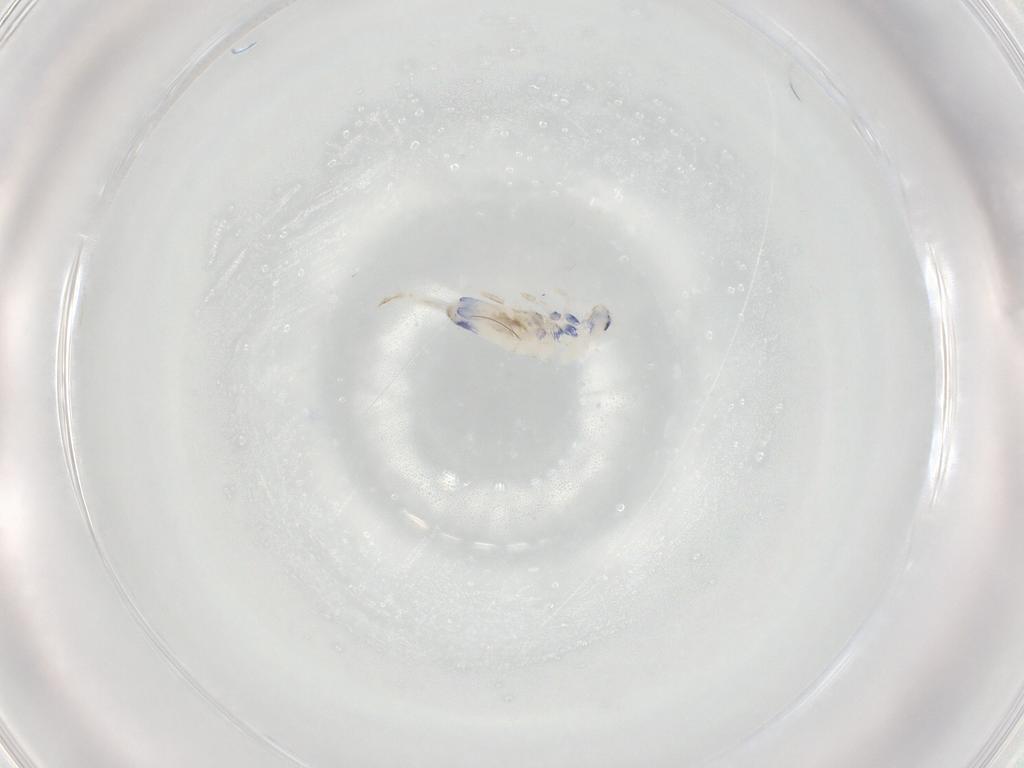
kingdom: Animalia
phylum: Arthropoda
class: Collembola
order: Entomobryomorpha
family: Entomobryidae
